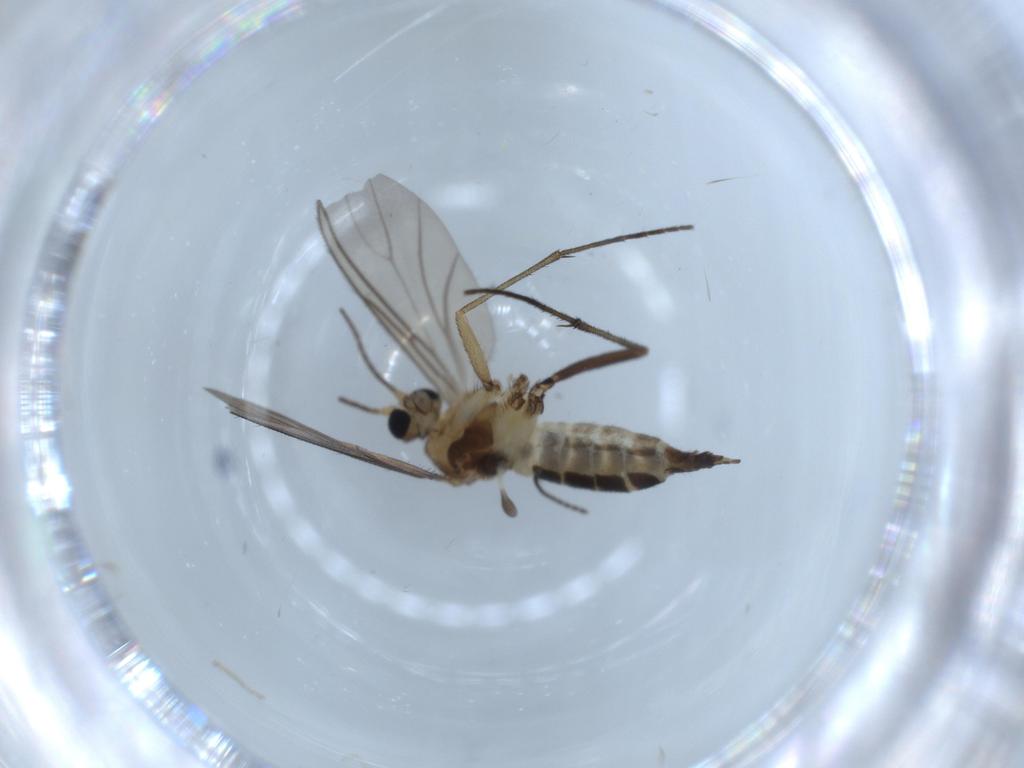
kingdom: Animalia
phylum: Arthropoda
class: Insecta
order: Diptera
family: Sciaridae
